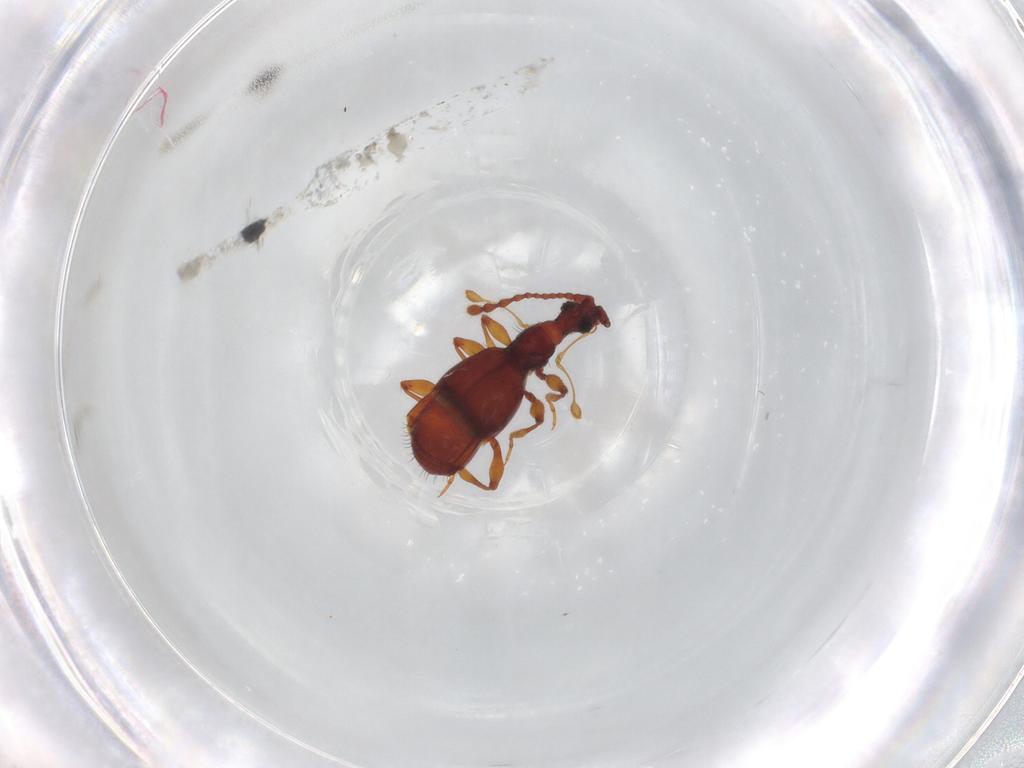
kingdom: Animalia
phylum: Arthropoda
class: Insecta
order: Coleoptera
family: Staphylinidae
